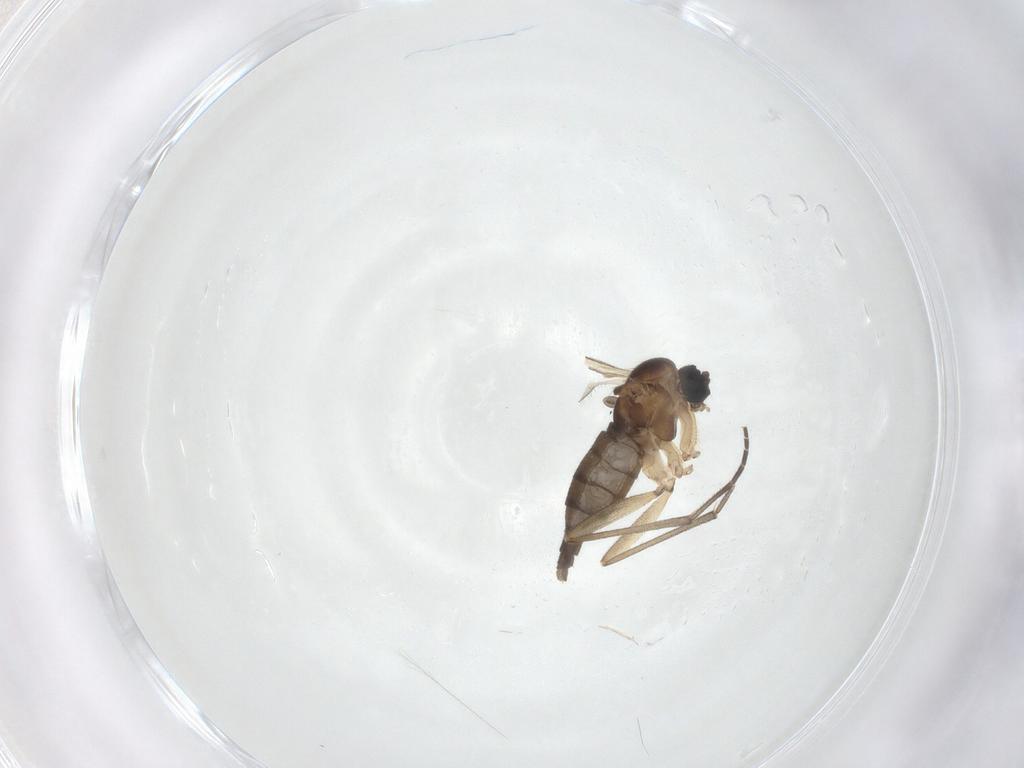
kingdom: Animalia
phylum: Arthropoda
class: Insecta
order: Diptera
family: Sciaridae
